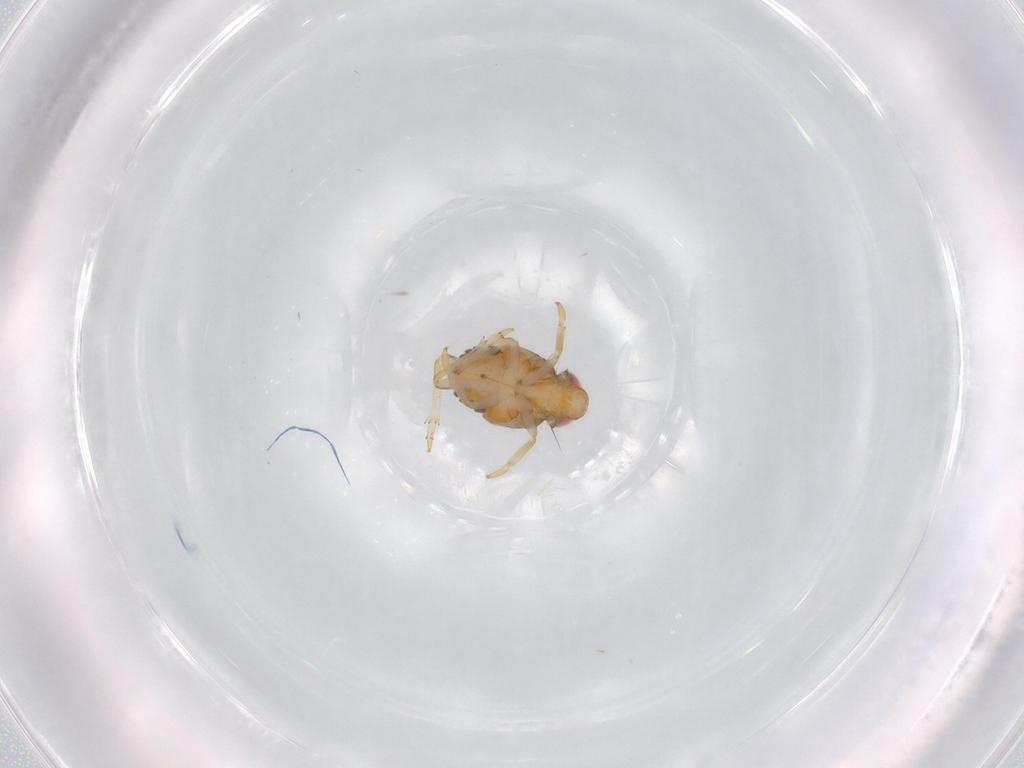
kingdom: Animalia
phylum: Arthropoda
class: Insecta
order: Hemiptera
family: Issidae
